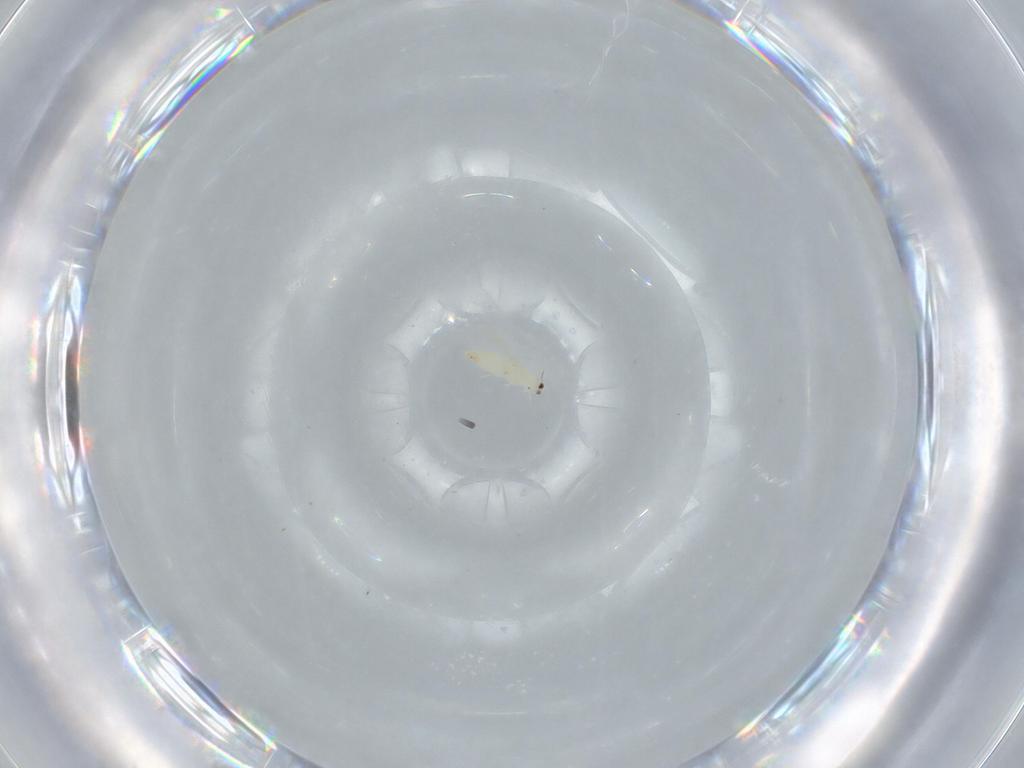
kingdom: Animalia
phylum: Arthropoda
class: Insecta
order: Thysanoptera
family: Thripidae
